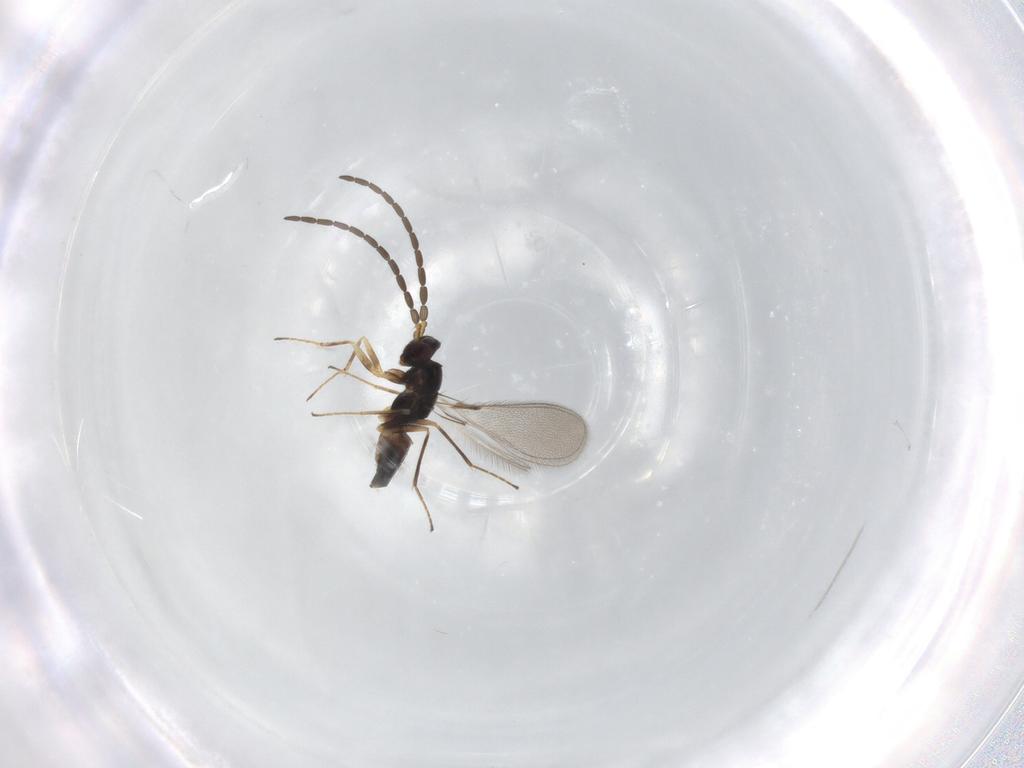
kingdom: Animalia
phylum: Arthropoda
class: Insecta
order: Hymenoptera
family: Mymaridae
